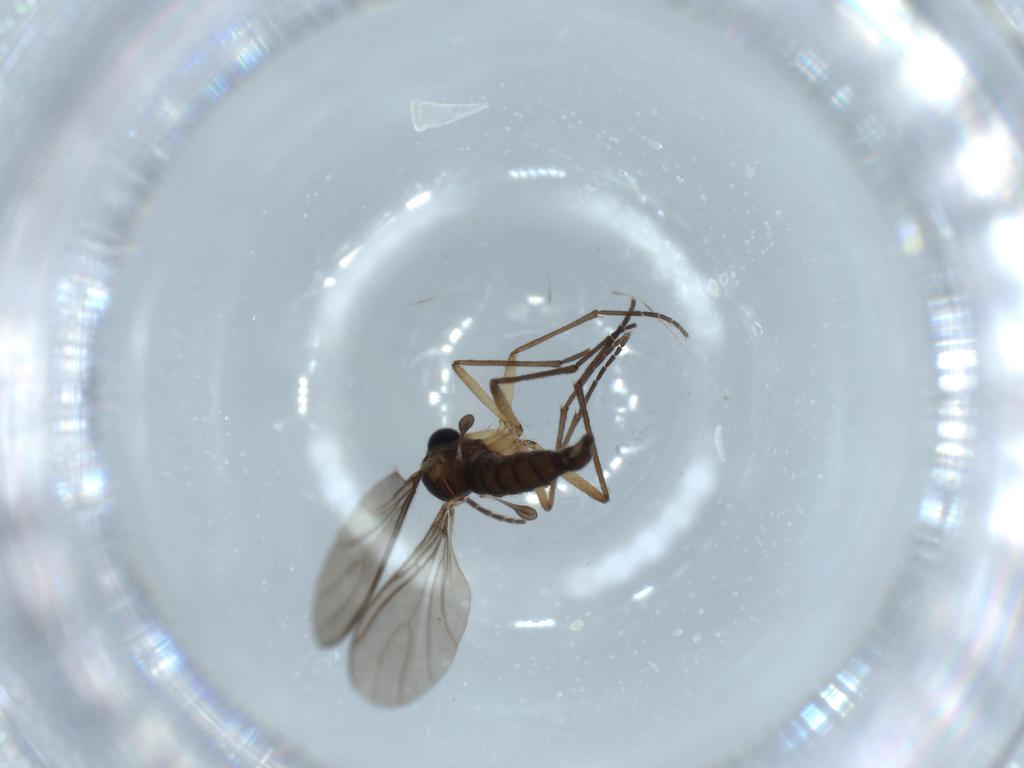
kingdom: Animalia
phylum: Arthropoda
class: Insecta
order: Diptera
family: Sciaridae
